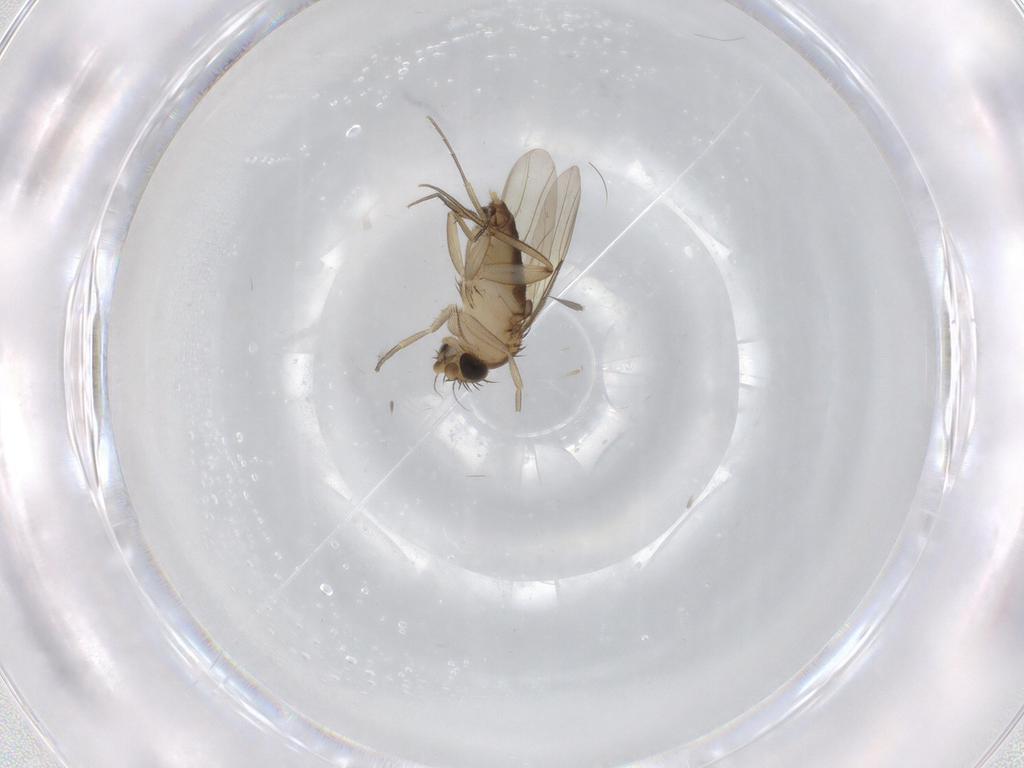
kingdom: Animalia
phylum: Arthropoda
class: Insecta
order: Diptera
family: Phoridae
